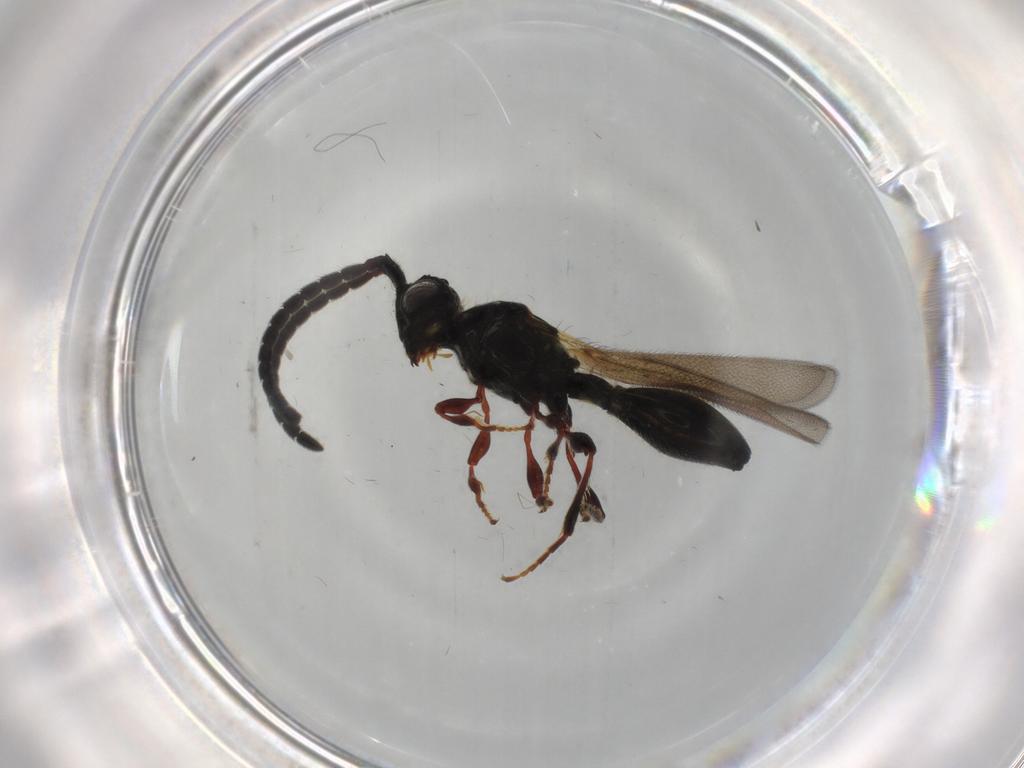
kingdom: Animalia
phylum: Arthropoda
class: Insecta
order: Hymenoptera
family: Diapriidae
